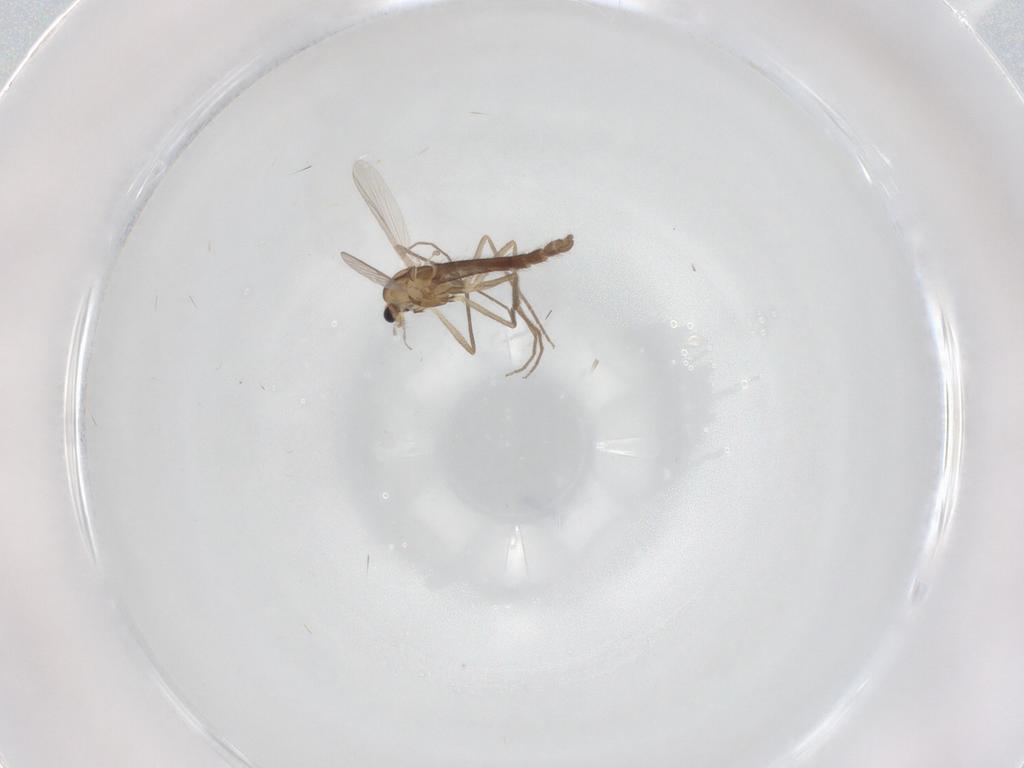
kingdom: Animalia
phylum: Arthropoda
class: Insecta
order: Diptera
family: Chironomidae
